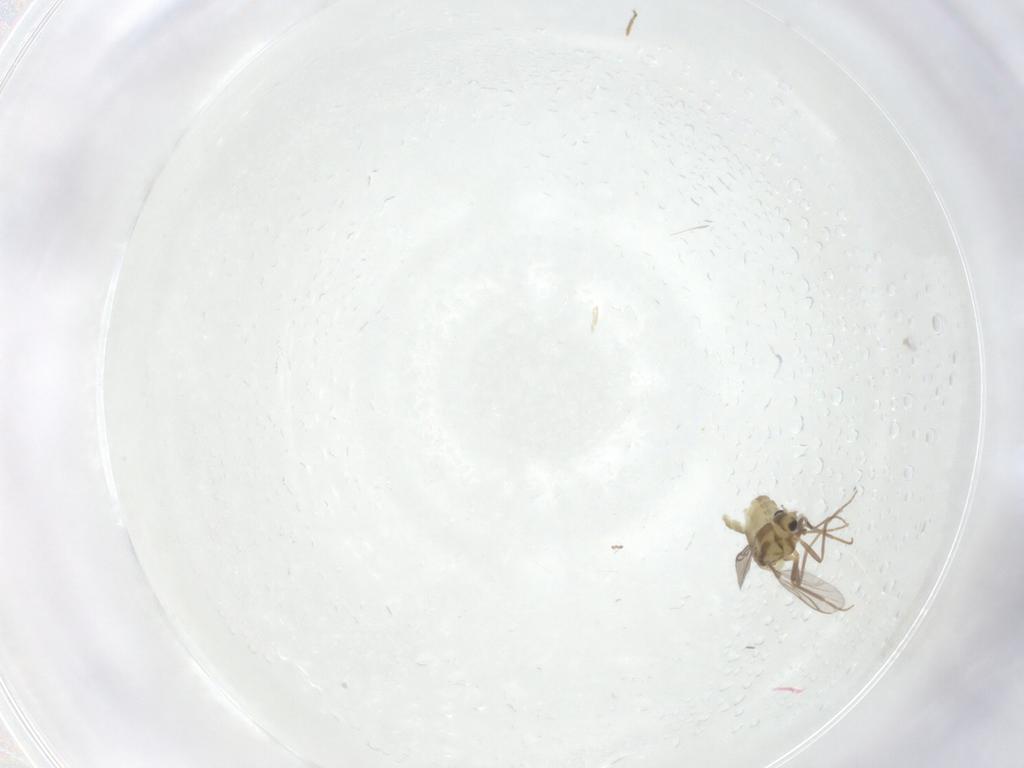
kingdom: Animalia
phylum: Arthropoda
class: Insecta
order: Diptera
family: Chironomidae
